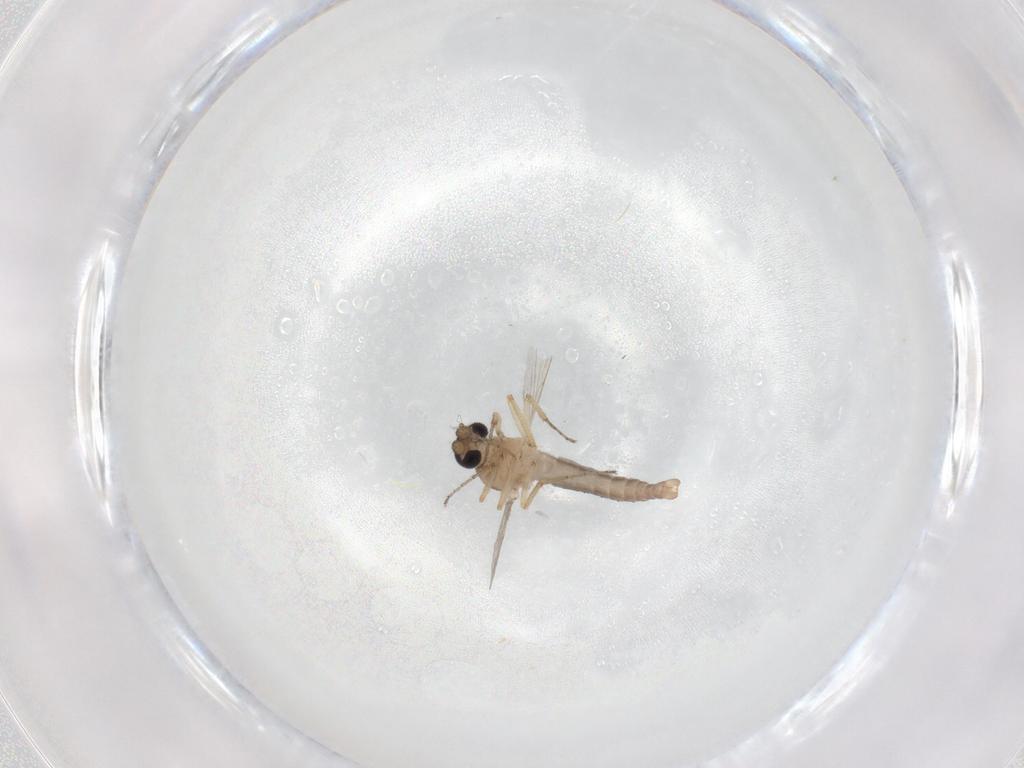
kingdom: Animalia
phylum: Arthropoda
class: Insecta
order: Diptera
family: Ceratopogonidae
